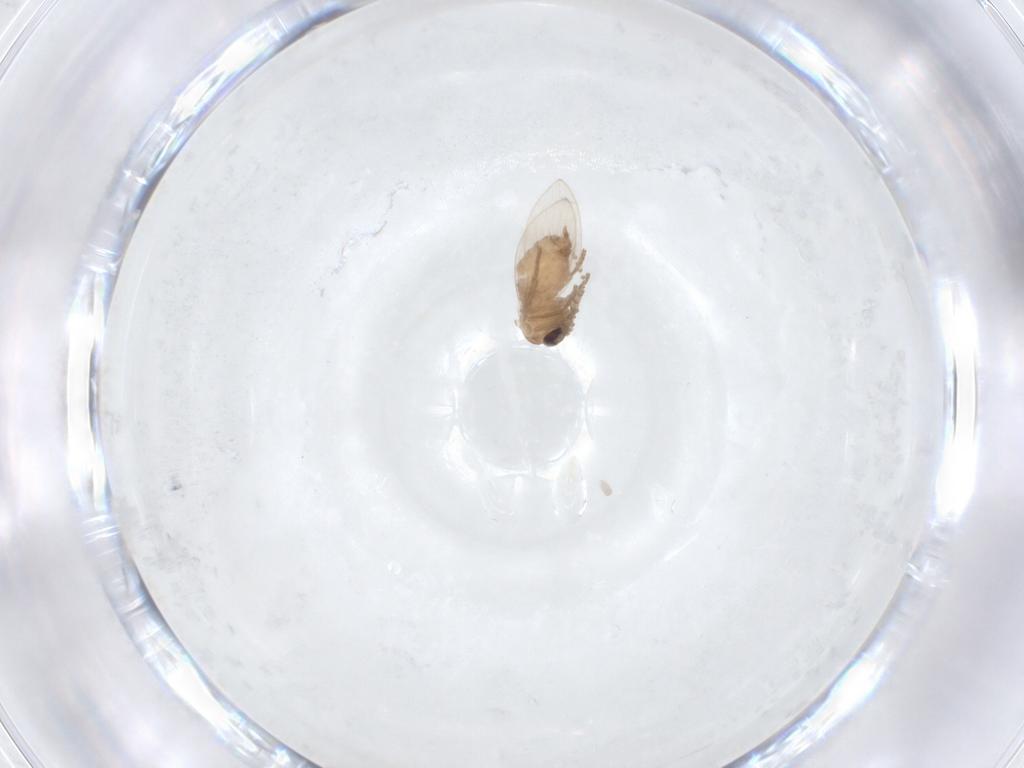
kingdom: Animalia
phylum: Arthropoda
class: Insecta
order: Diptera
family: Psychodidae
